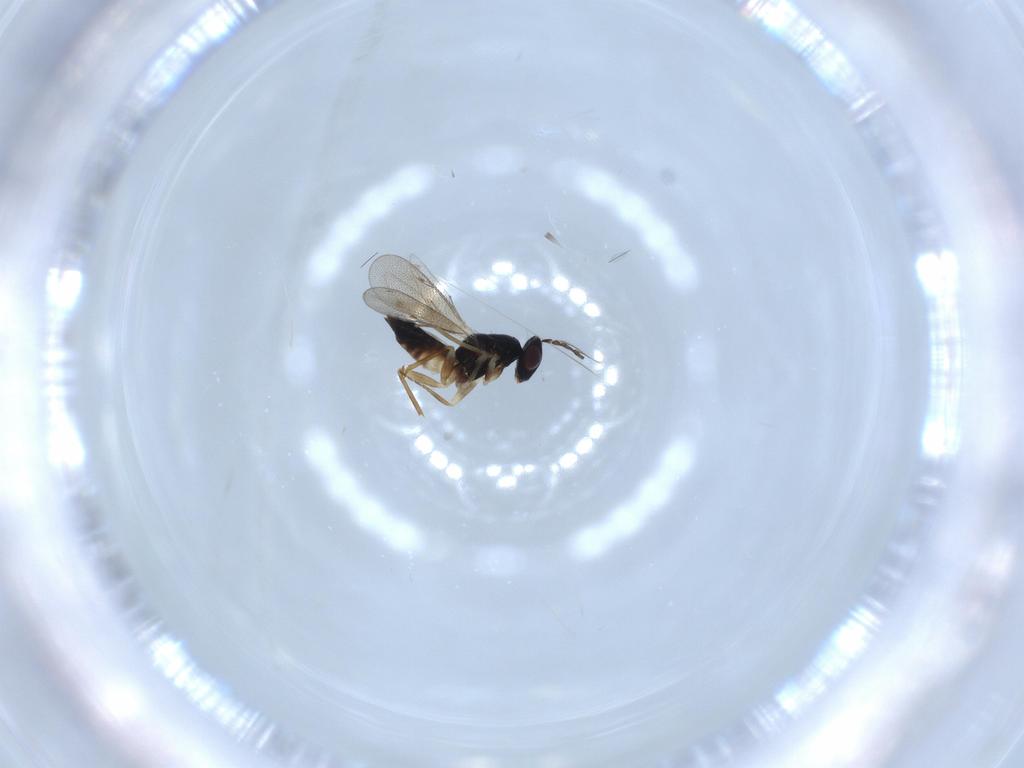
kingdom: Animalia
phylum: Arthropoda
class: Insecta
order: Hymenoptera
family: Eulophidae
